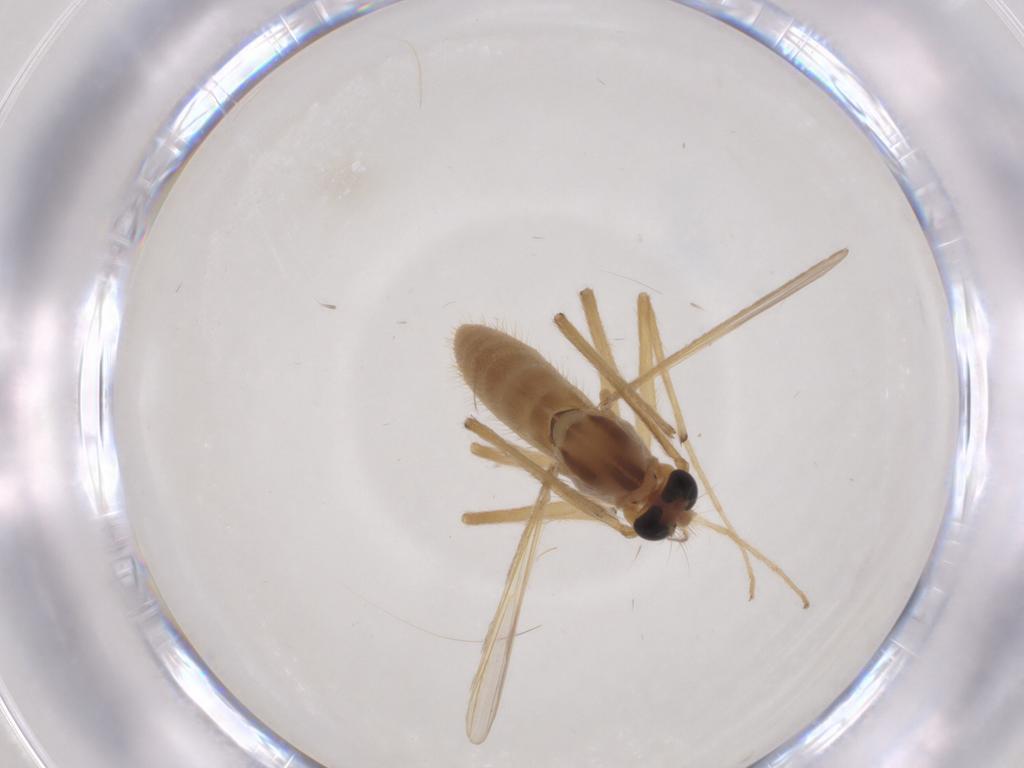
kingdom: Animalia
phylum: Arthropoda
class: Insecta
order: Diptera
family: Chironomidae
